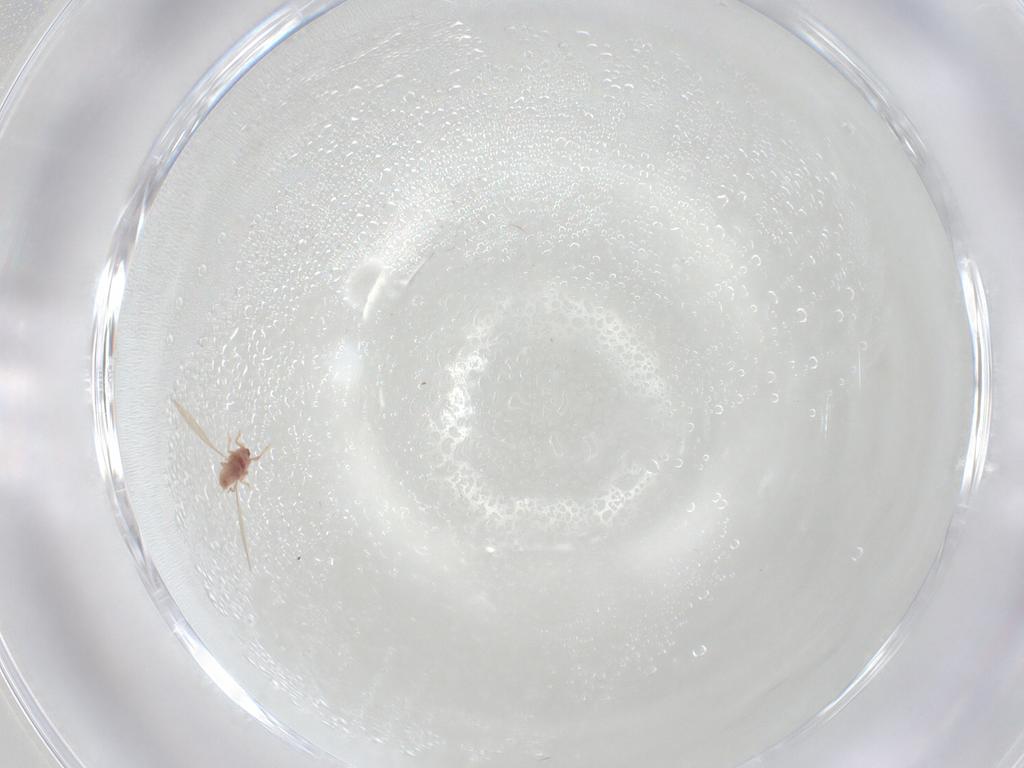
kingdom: Animalia
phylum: Arthropoda
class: Insecta
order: Hemiptera
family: Pseudococcidae
